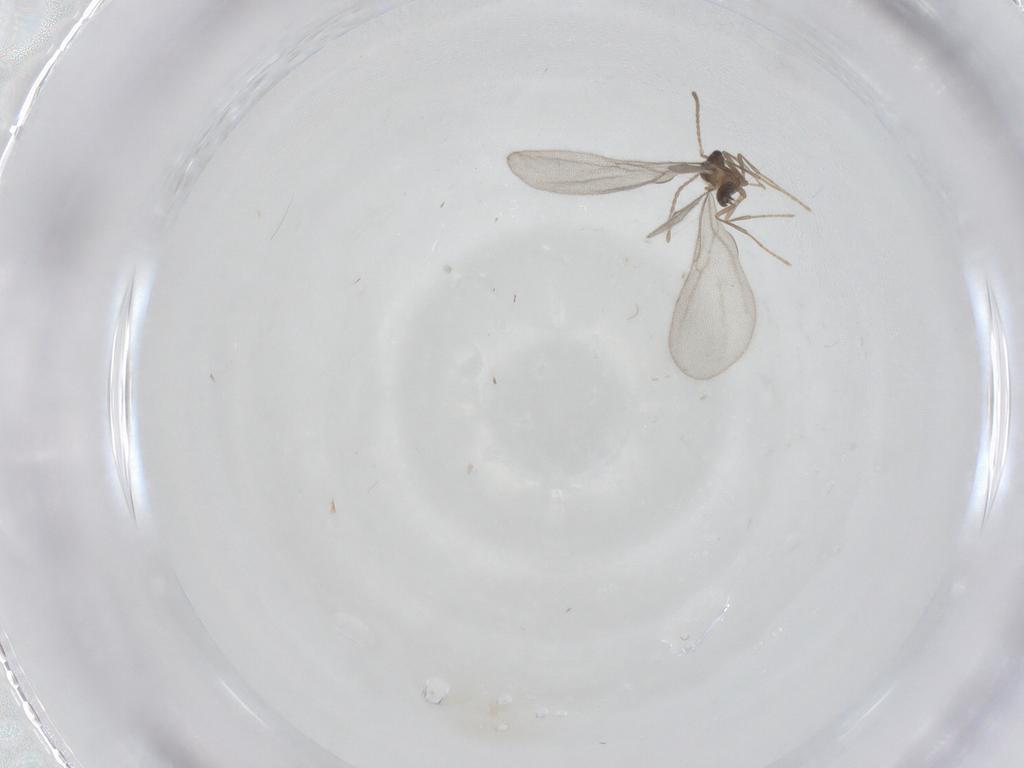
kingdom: Animalia
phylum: Arthropoda
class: Insecta
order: Hymenoptera
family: Formicidae
